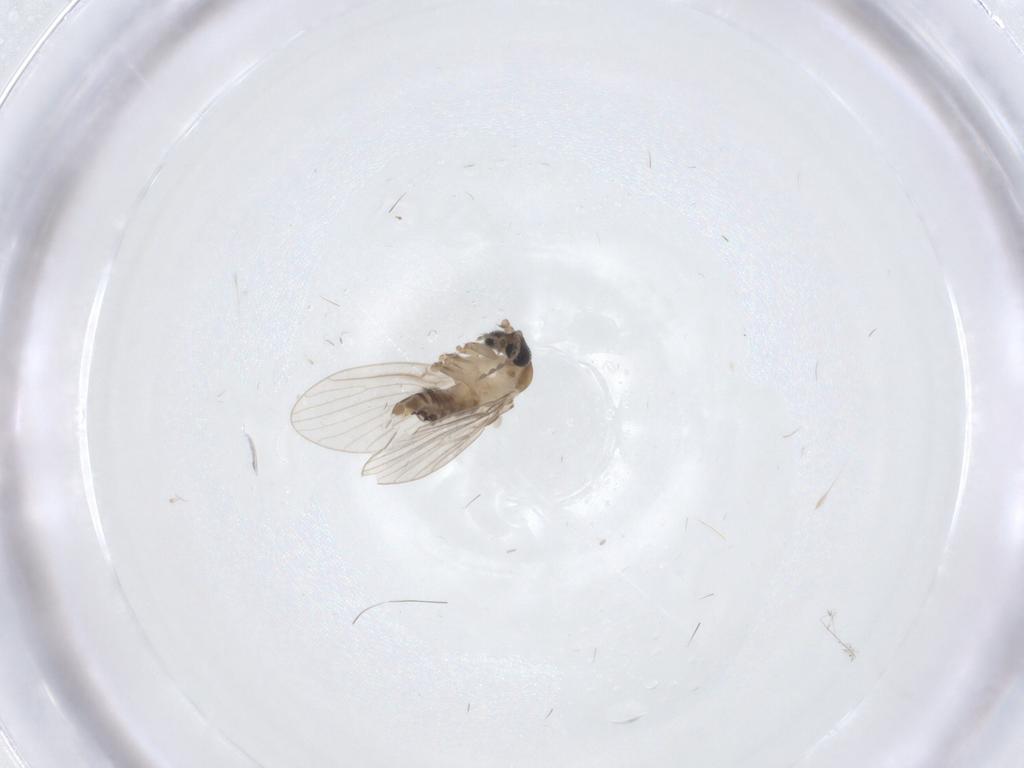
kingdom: Animalia
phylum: Arthropoda
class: Insecta
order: Diptera
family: Psychodidae
